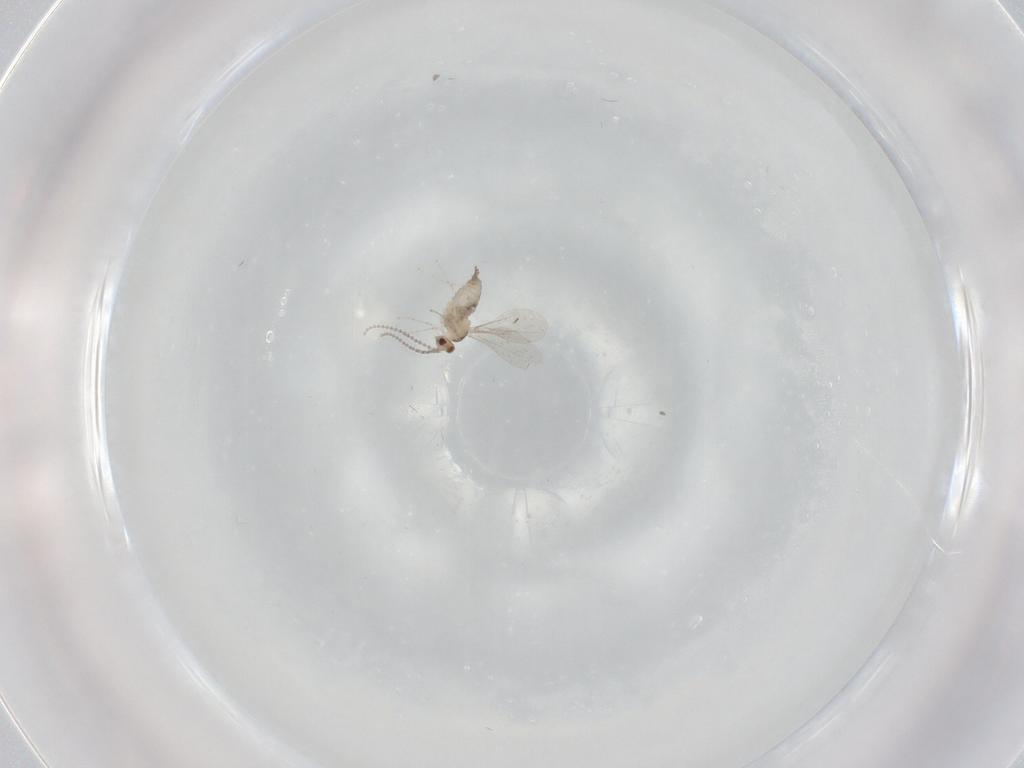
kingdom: Animalia
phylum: Arthropoda
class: Insecta
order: Diptera
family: Cecidomyiidae
